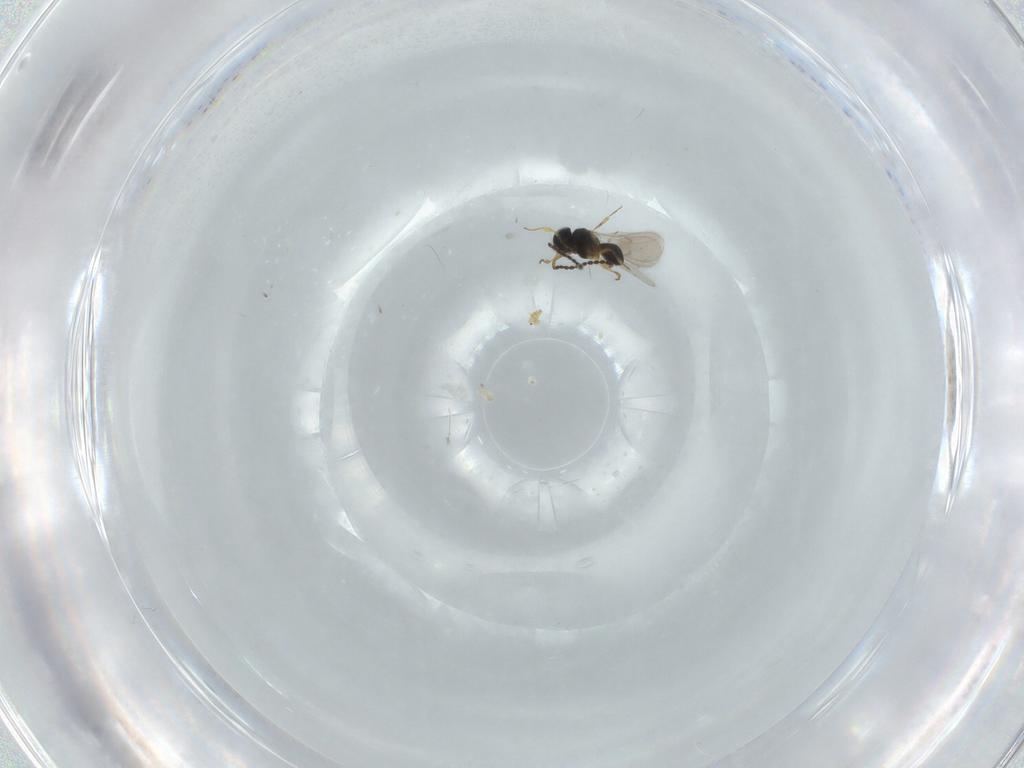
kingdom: Animalia
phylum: Arthropoda
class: Insecta
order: Hymenoptera
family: Scelionidae
